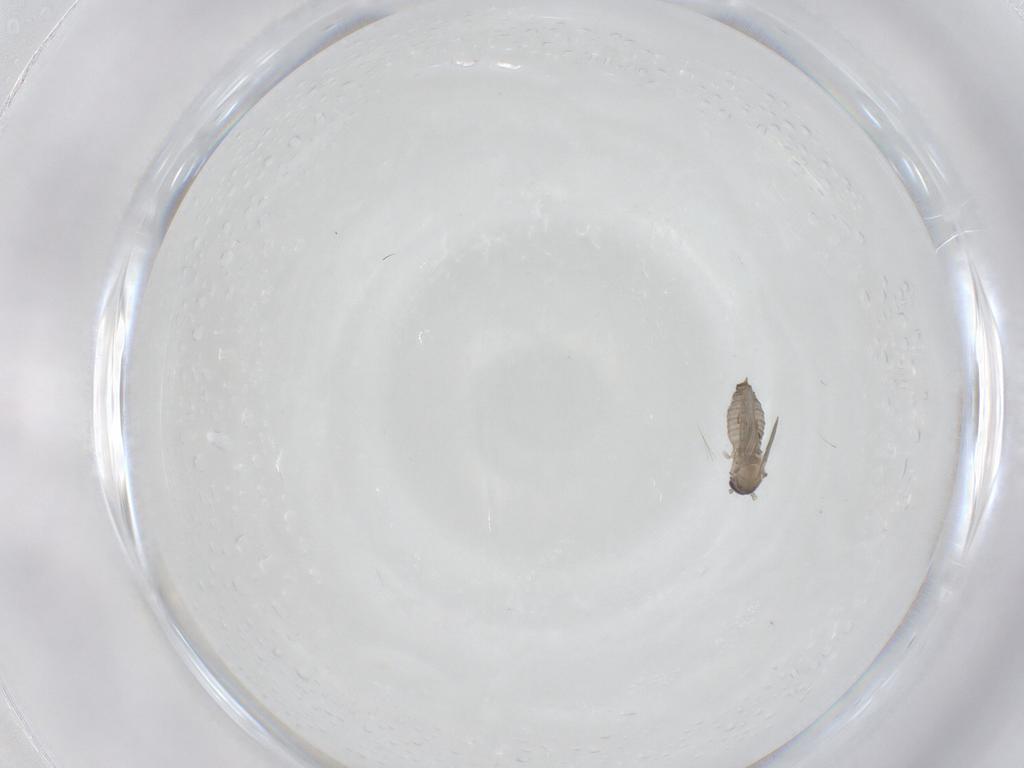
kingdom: Animalia
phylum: Arthropoda
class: Insecta
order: Diptera
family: Psychodidae
